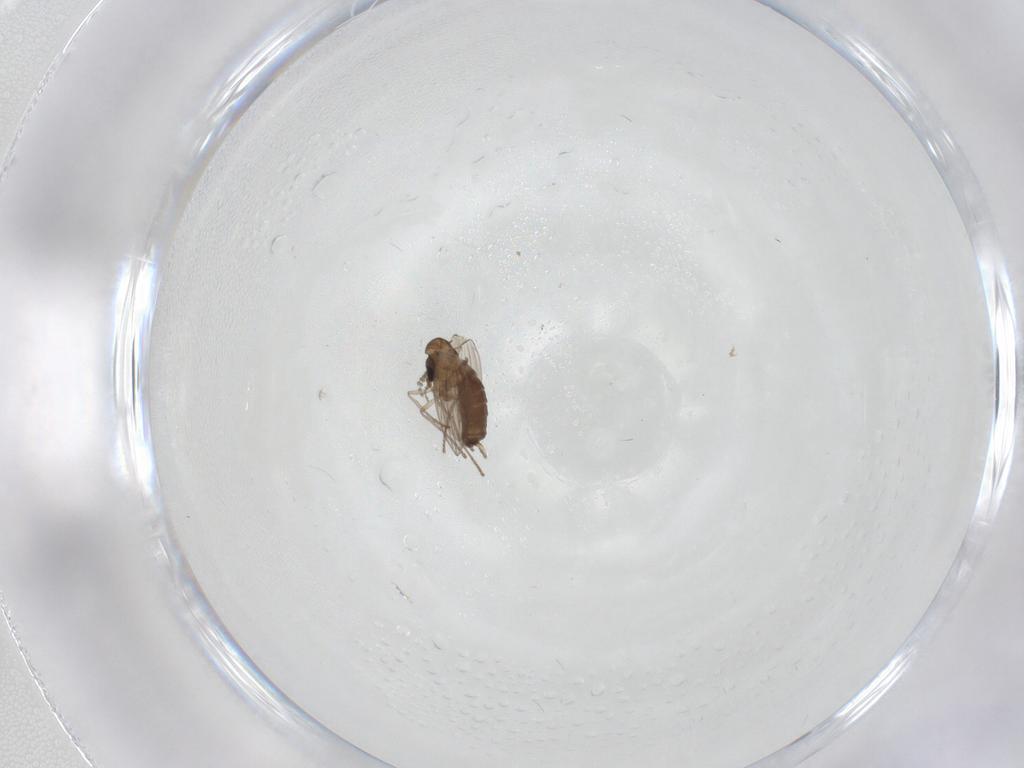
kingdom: Animalia
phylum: Arthropoda
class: Insecta
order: Diptera
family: Psychodidae
